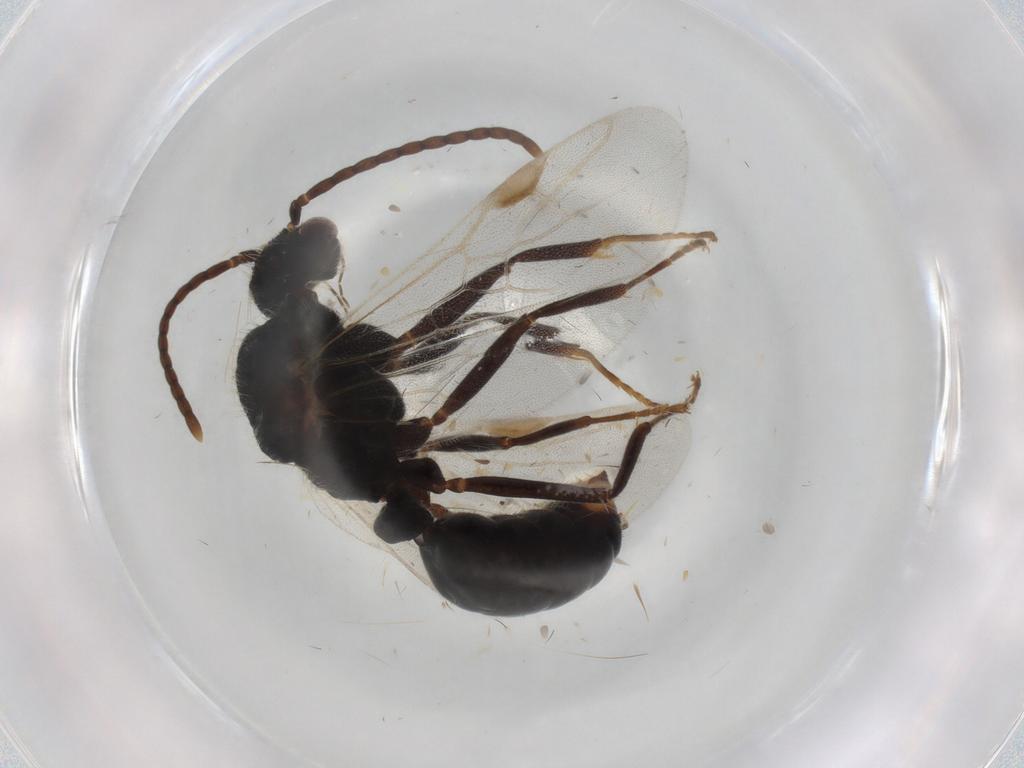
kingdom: Animalia
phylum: Arthropoda
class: Insecta
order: Hymenoptera
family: Formicidae
